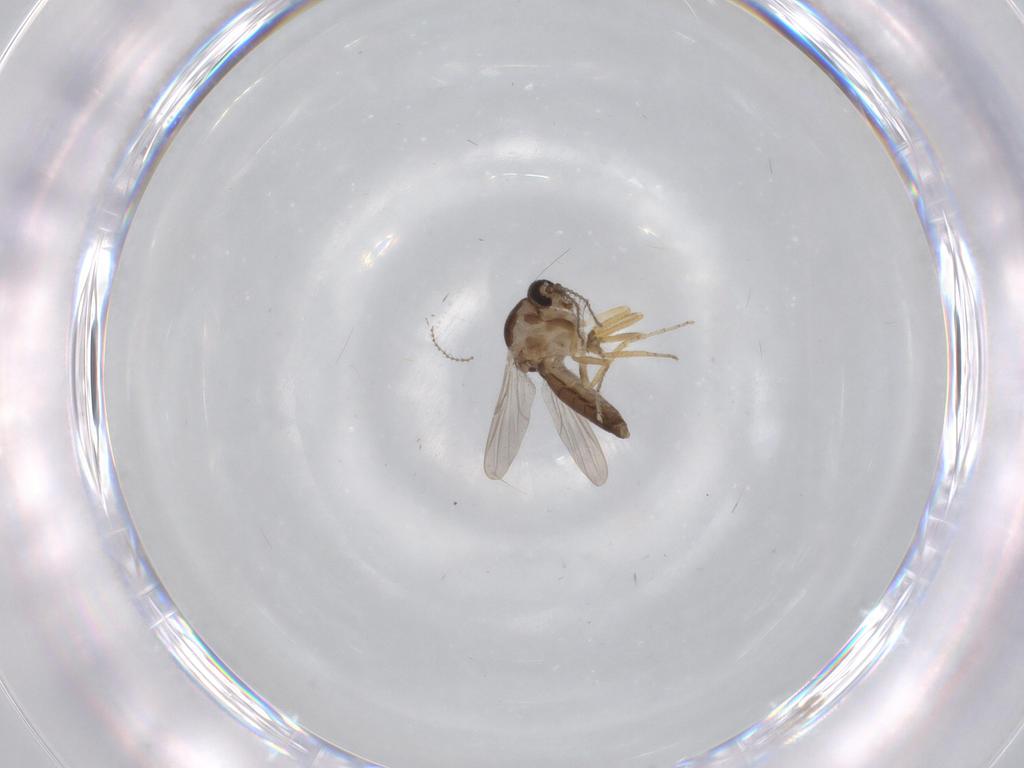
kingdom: Animalia
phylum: Arthropoda
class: Insecta
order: Diptera
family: Ceratopogonidae
